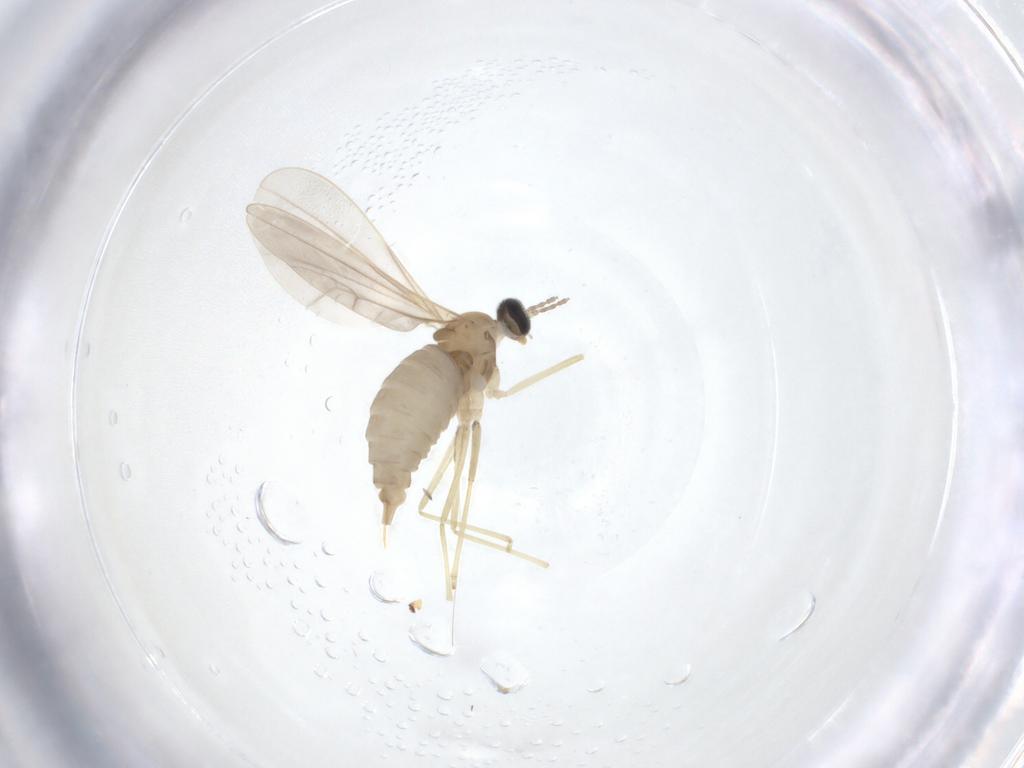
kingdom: Animalia
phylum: Arthropoda
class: Insecta
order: Diptera
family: Cecidomyiidae
